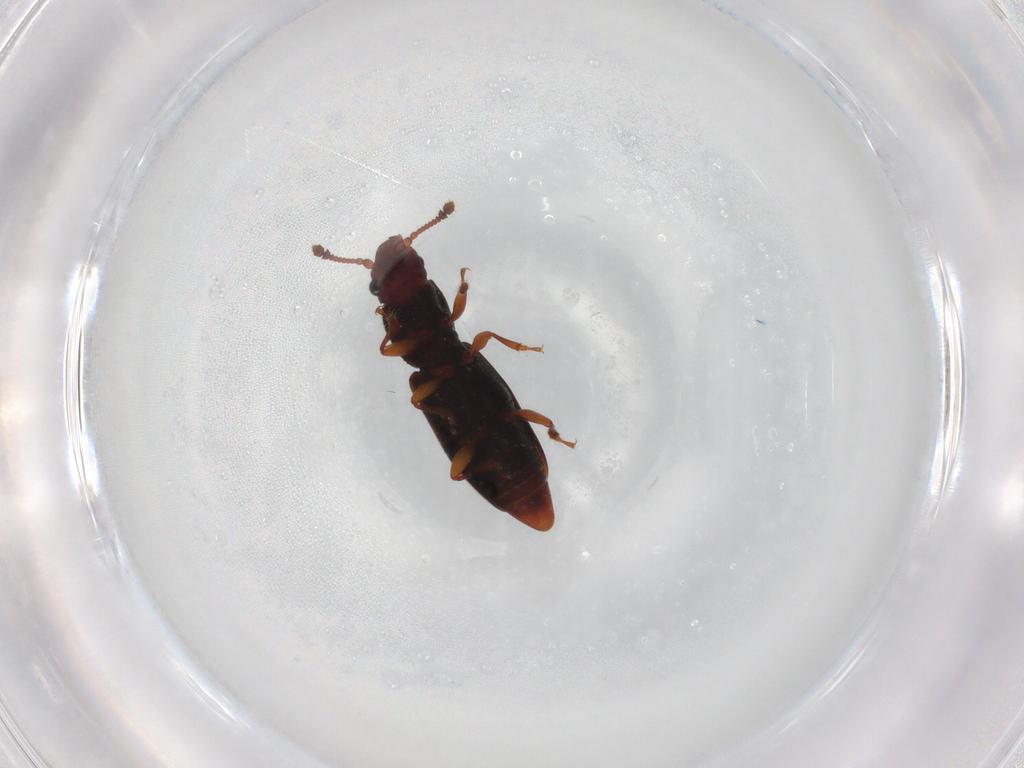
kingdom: Animalia
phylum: Arthropoda
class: Insecta
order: Coleoptera
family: Monotomidae
